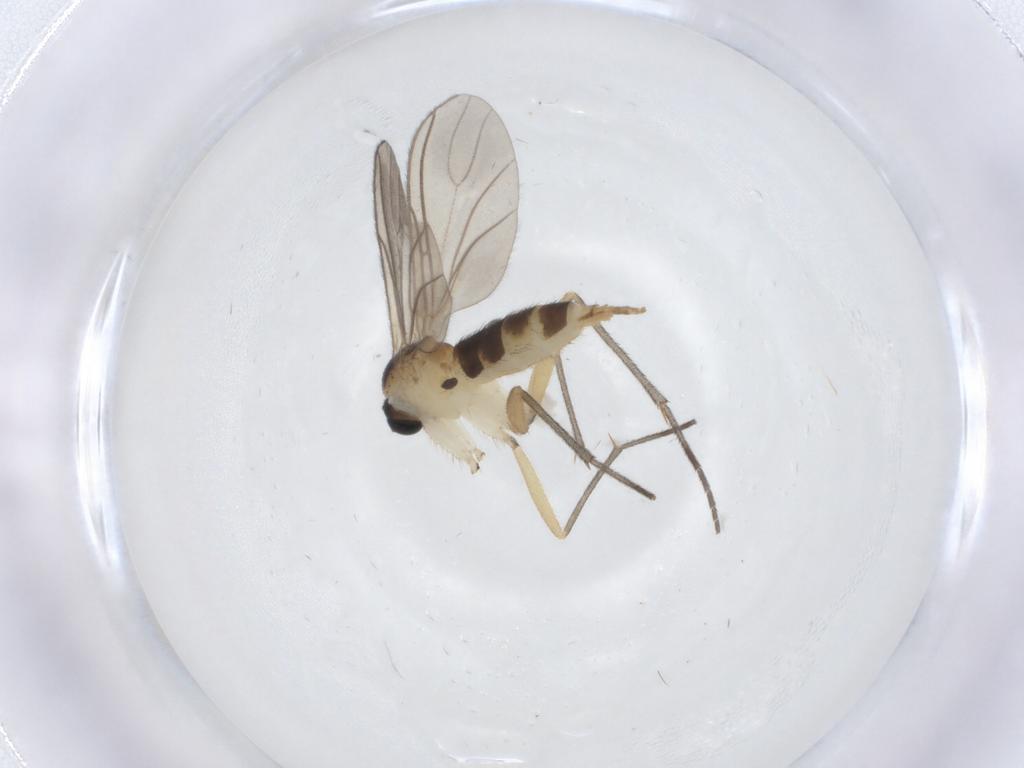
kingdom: Animalia
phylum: Arthropoda
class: Insecta
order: Diptera
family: Sciaridae
